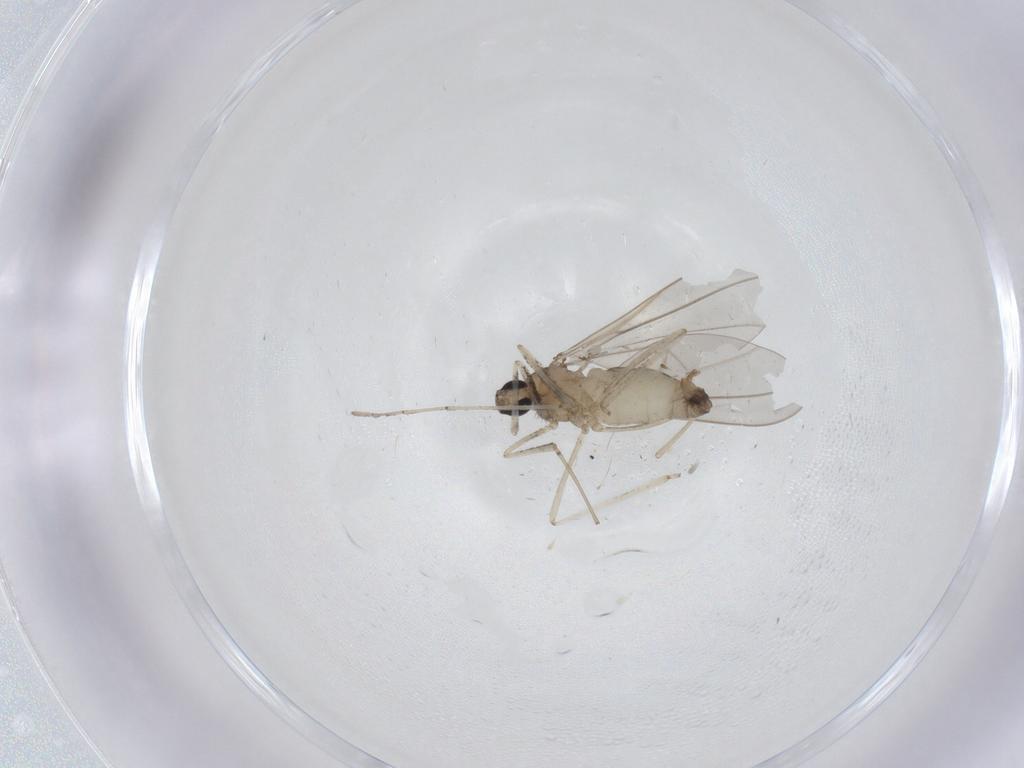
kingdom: Animalia
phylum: Arthropoda
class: Insecta
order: Diptera
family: Cecidomyiidae
